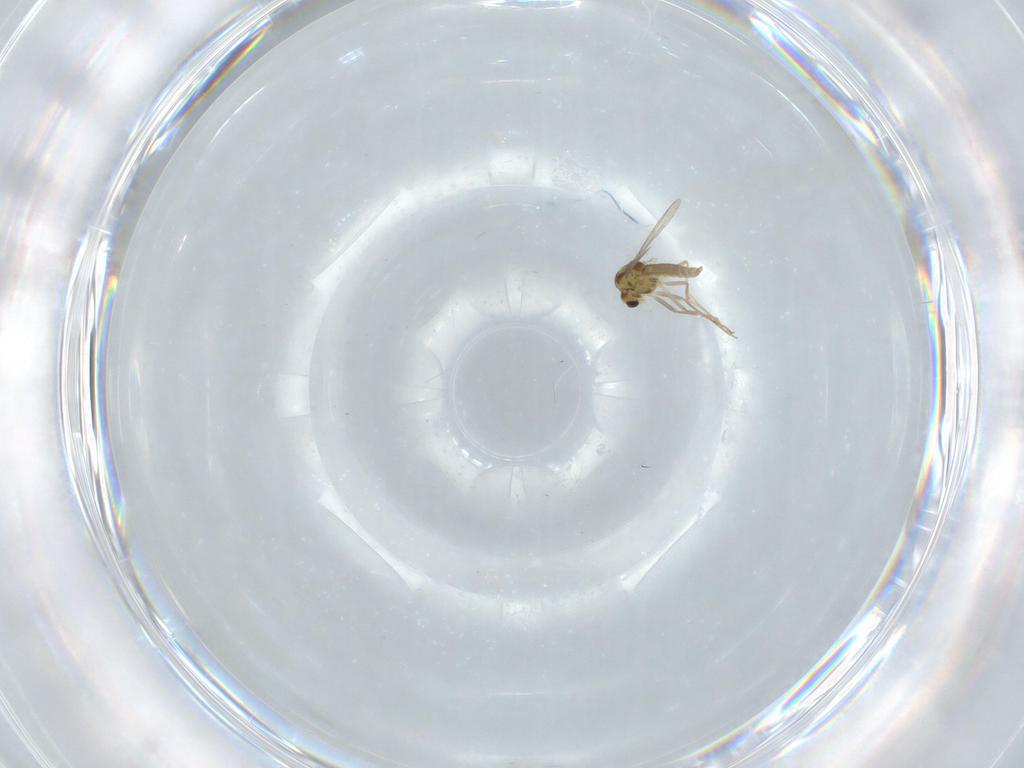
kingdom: Animalia
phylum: Arthropoda
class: Insecta
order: Diptera
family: Chironomidae
